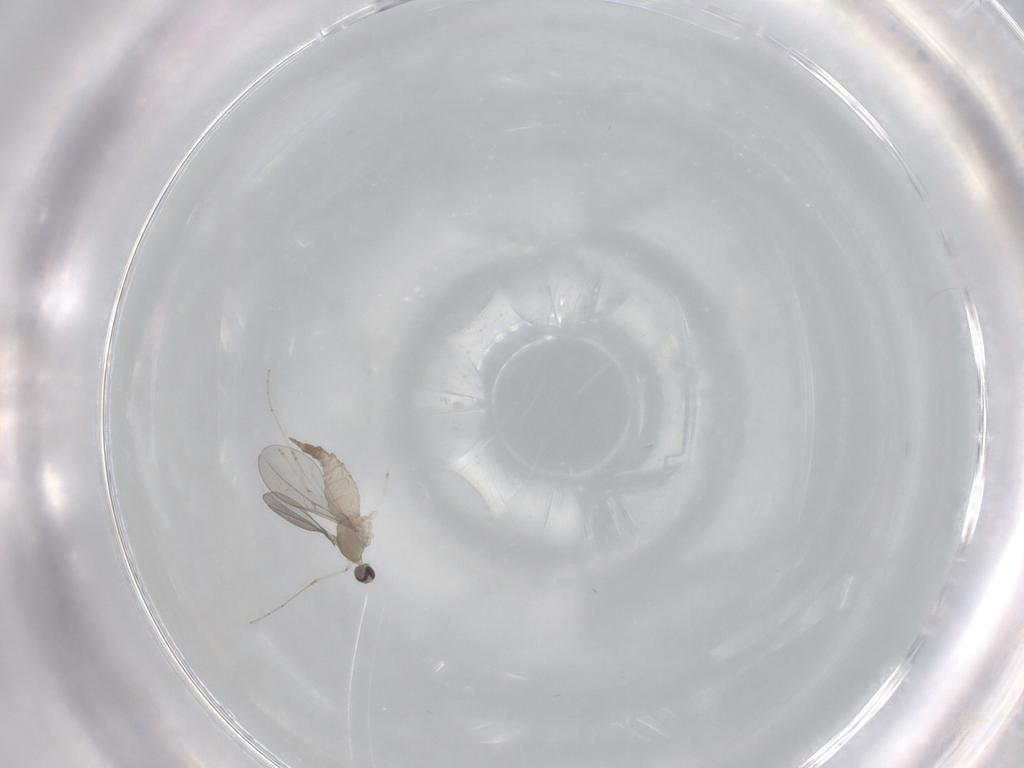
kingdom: Animalia
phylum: Arthropoda
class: Insecta
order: Diptera
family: Cecidomyiidae
